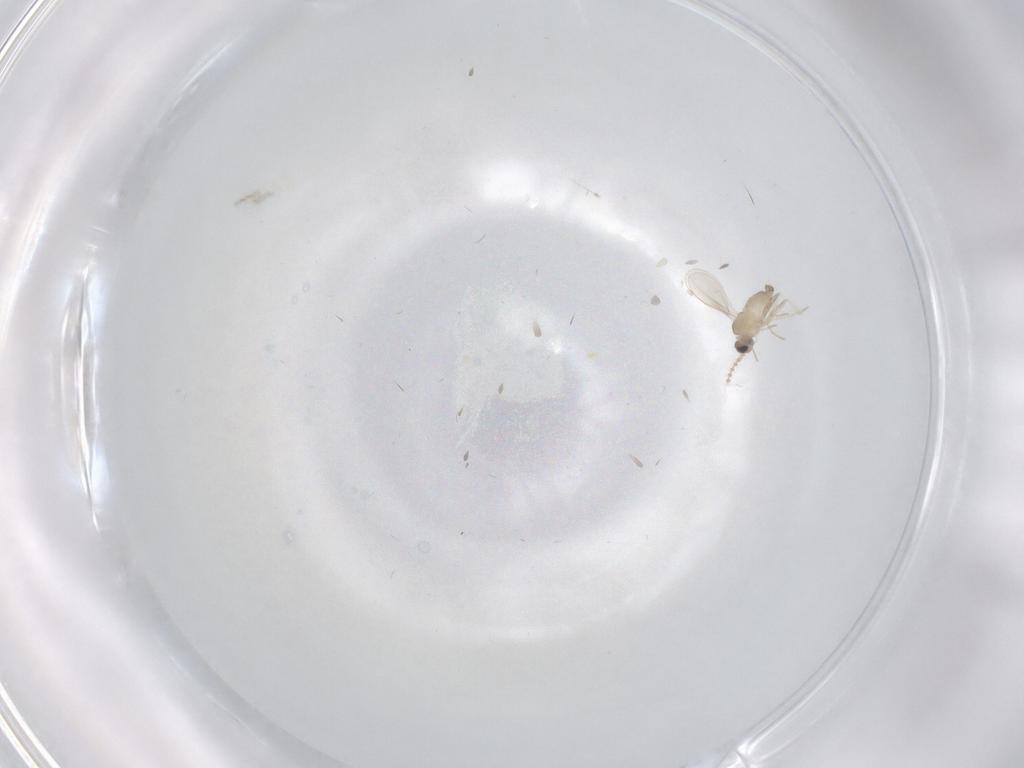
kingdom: Animalia
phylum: Arthropoda
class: Insecta
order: Diptera
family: Cecidomyiidae
